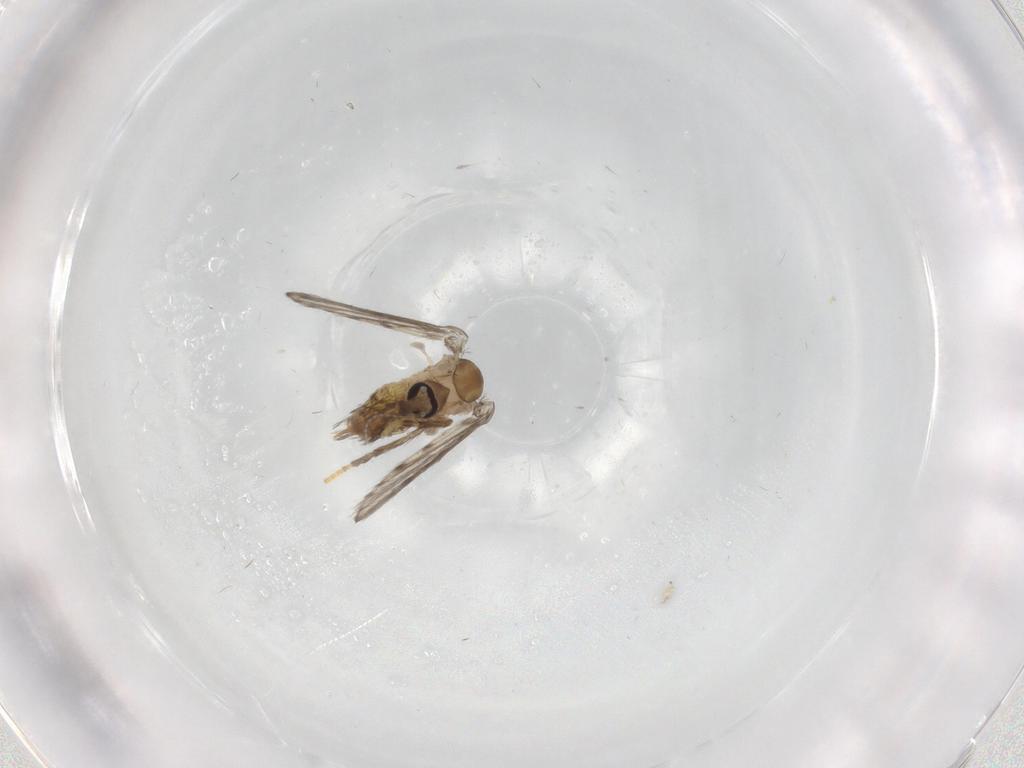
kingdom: Animalia
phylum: Arthropoda
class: Insecta
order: Diptera
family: Psychodidae
